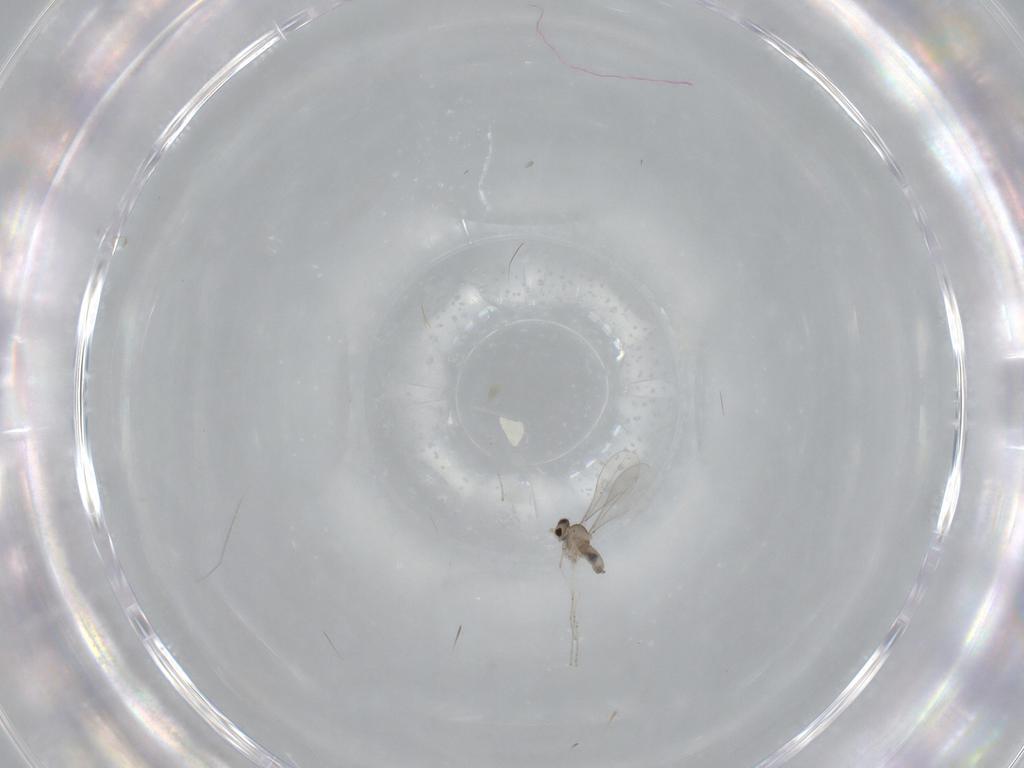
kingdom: Animalia
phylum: Arthropoda
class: Insecta
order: Diptera
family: Cecidomyiidae
